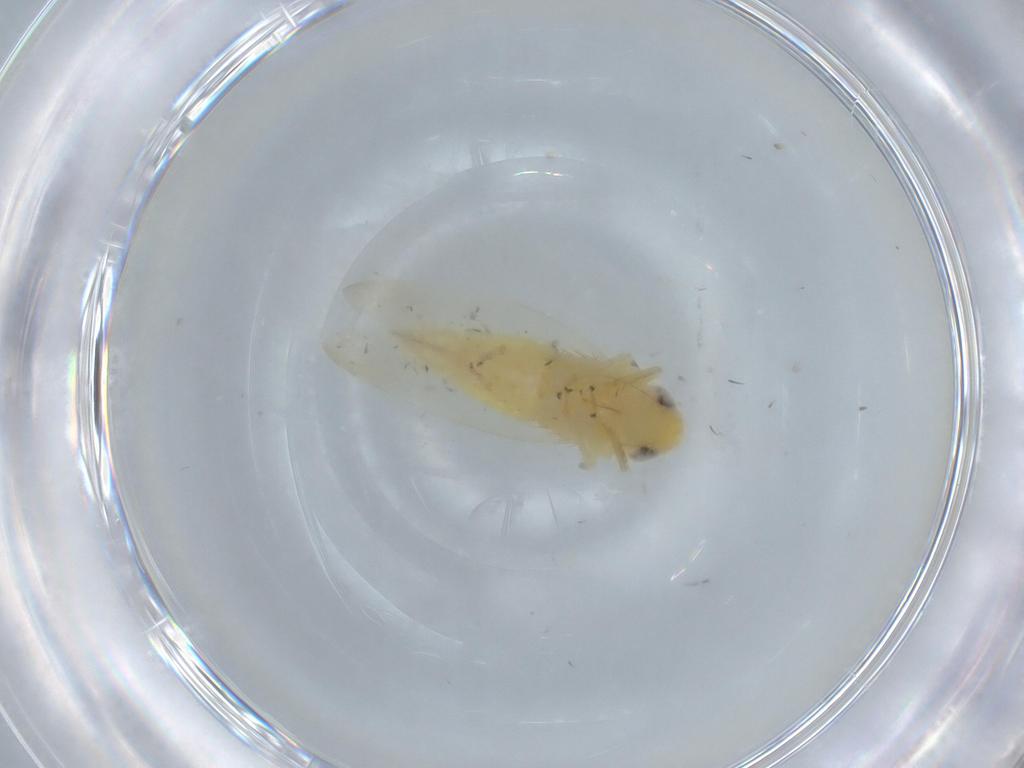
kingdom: Animalia
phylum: Arthropoda
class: Insecta
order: Hemiptera
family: Cicadellidae
